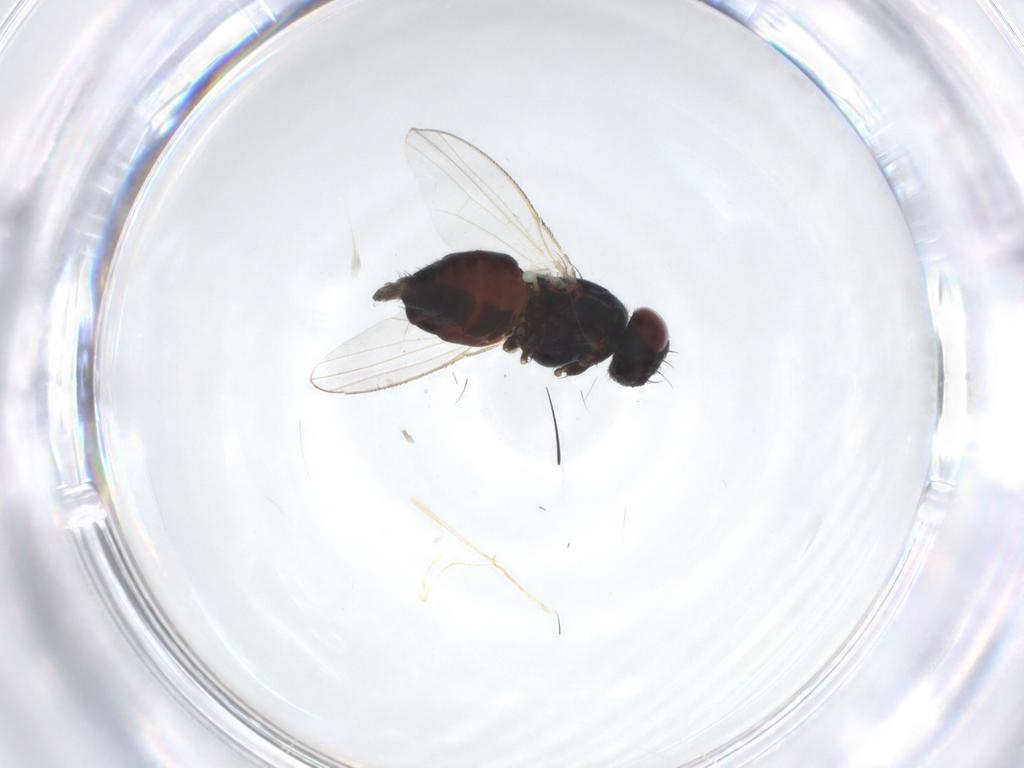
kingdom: Animalia
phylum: Arthropoda
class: Insecta
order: Diptera
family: Carnidae
